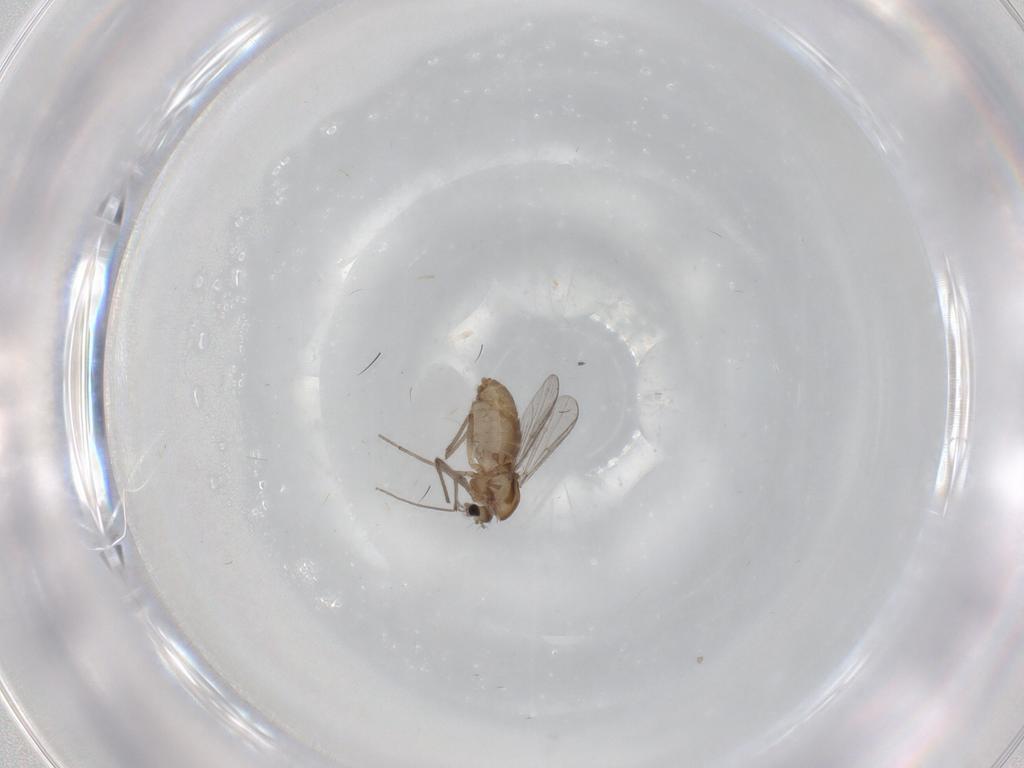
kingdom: Animalia
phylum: Arthropoda
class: Insecta
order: Diptera
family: Chironomidae
